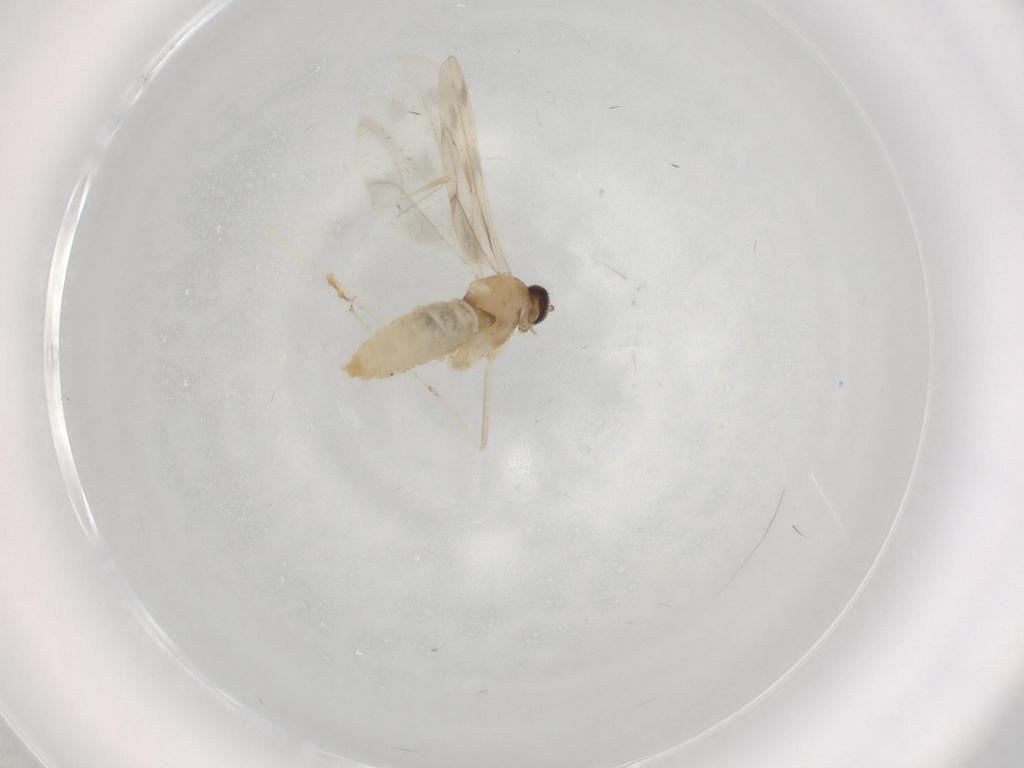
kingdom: Animalia
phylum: Arthropoda
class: Insecta
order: Diptera
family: Cecidomyiidae
